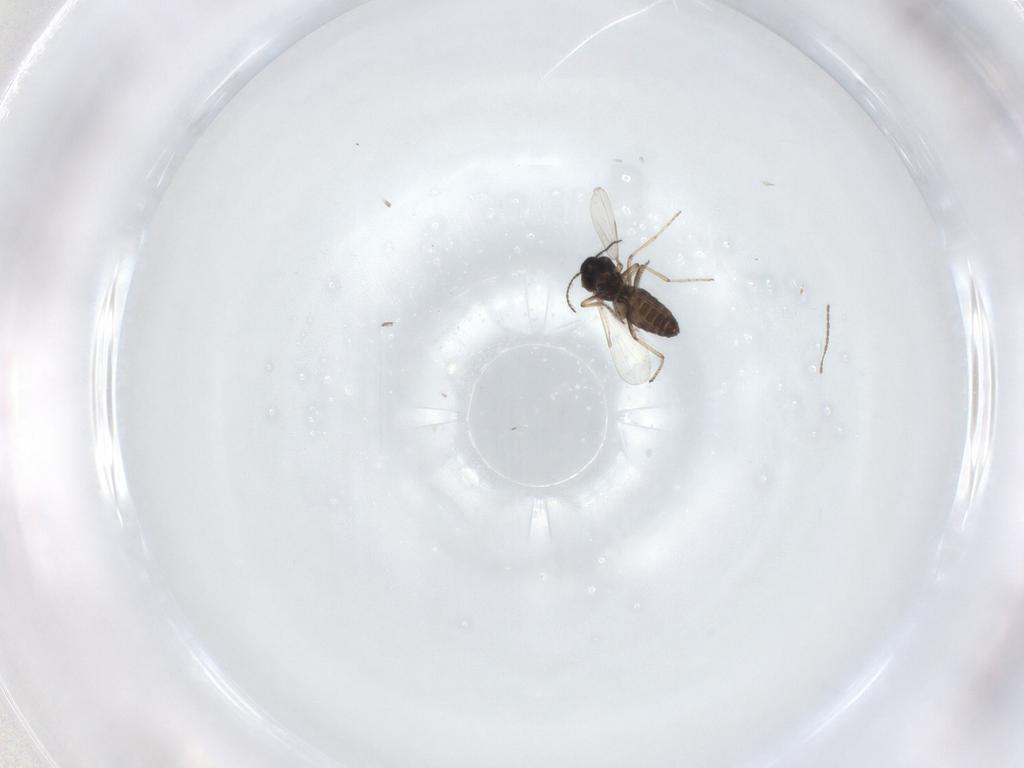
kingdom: Animalia
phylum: Arthropoda
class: Insecta
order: Diptera
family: Ceratopogonidae
